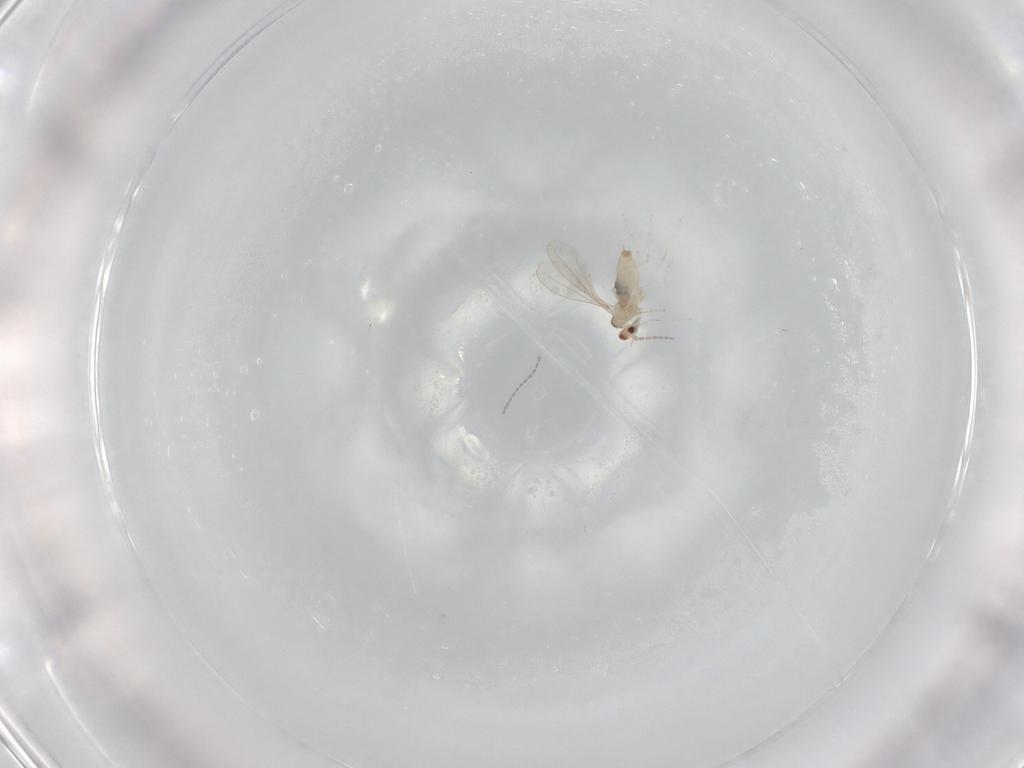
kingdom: Animalia
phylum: Arthropoda
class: Insecta
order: Diptera
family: Cecidomyiidae
